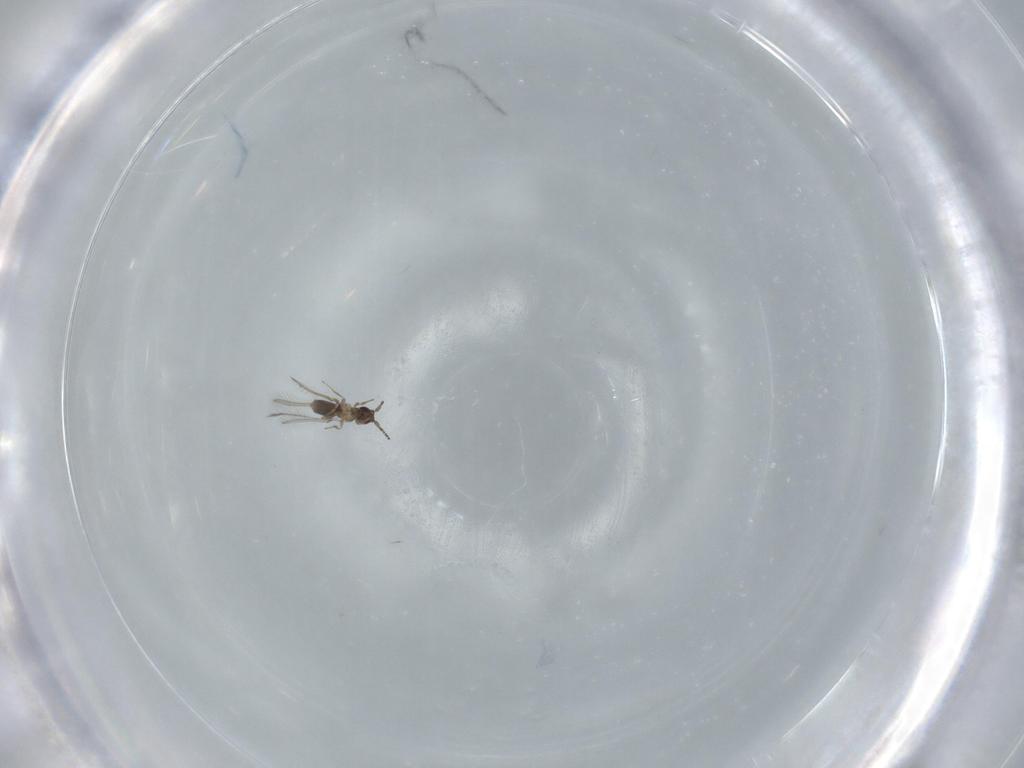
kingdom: Animalia
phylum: Arthropoda
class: Insecta
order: Hymenoptera
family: Mymaridae
